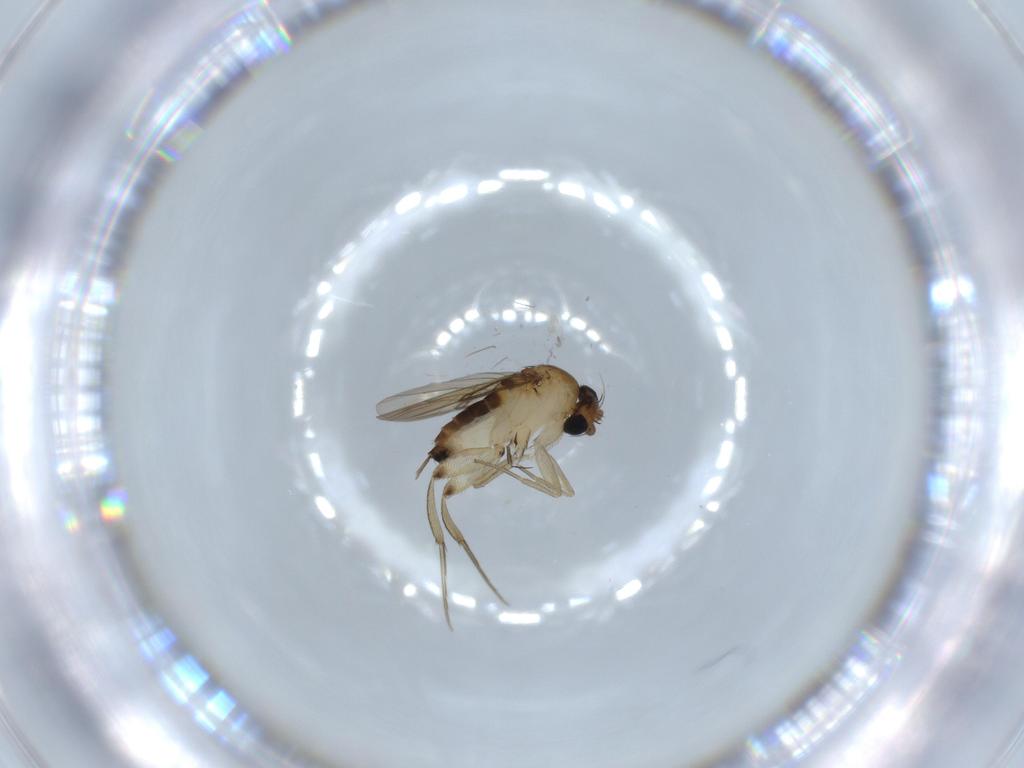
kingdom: Animalia
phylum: Arthropoda
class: Insecta
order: Diptera
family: Phoridae
